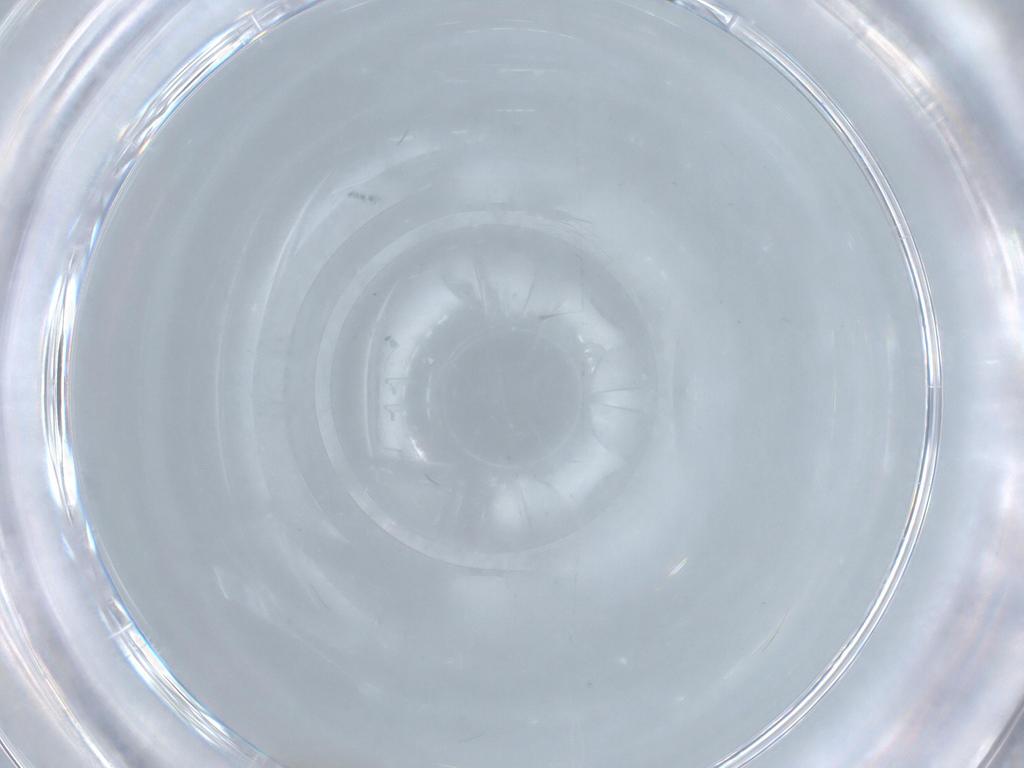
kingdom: Animalia
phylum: Arthropoda
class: Insecta
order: Diptera
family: Cecidomyiidae
